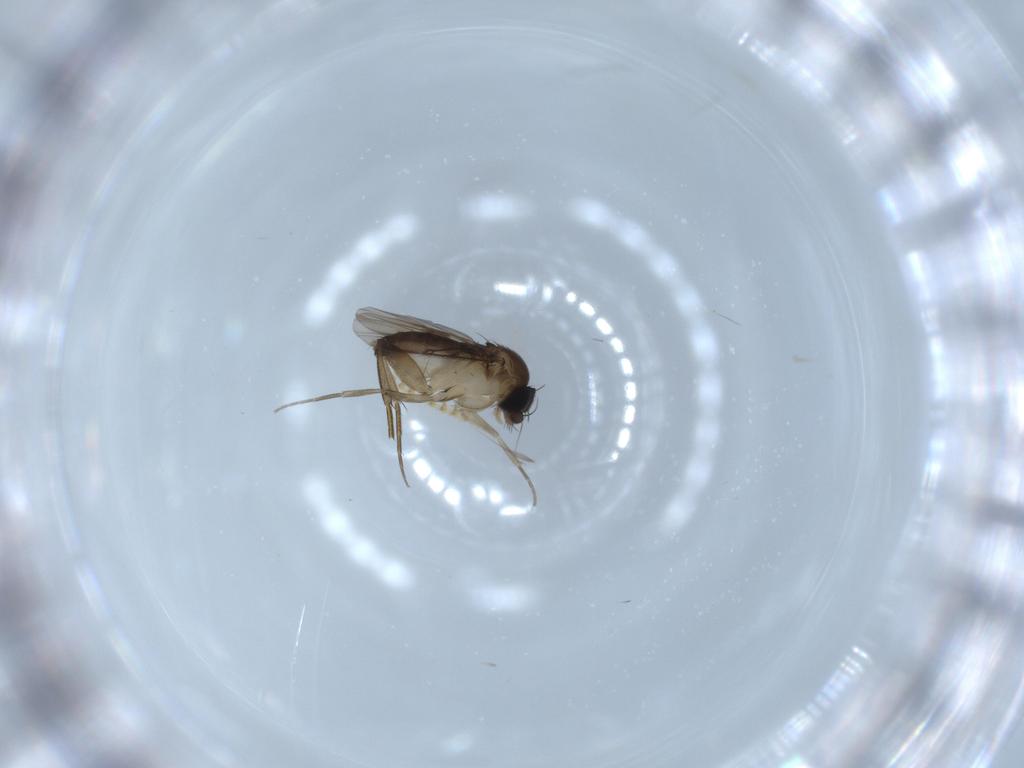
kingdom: Animalia
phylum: Arthropoda
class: Insecta
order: Diptera
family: Phoridae
